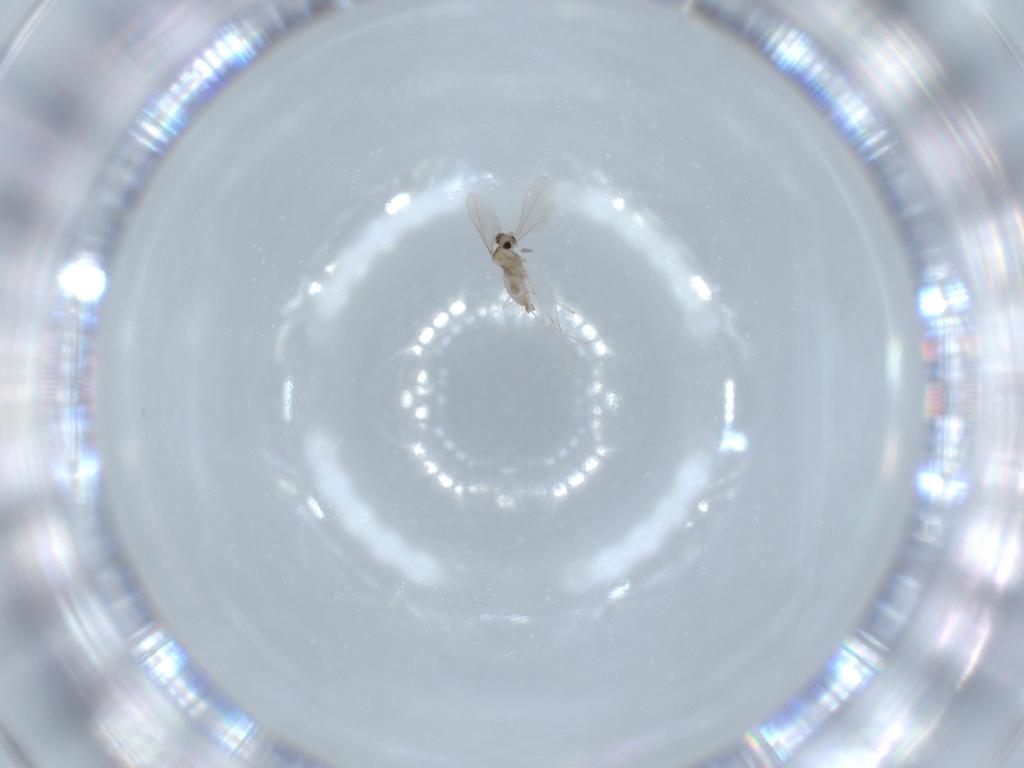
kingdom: Animalia
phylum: Arthropoda
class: Insecta
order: Diptera
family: Cecidomyiidae
